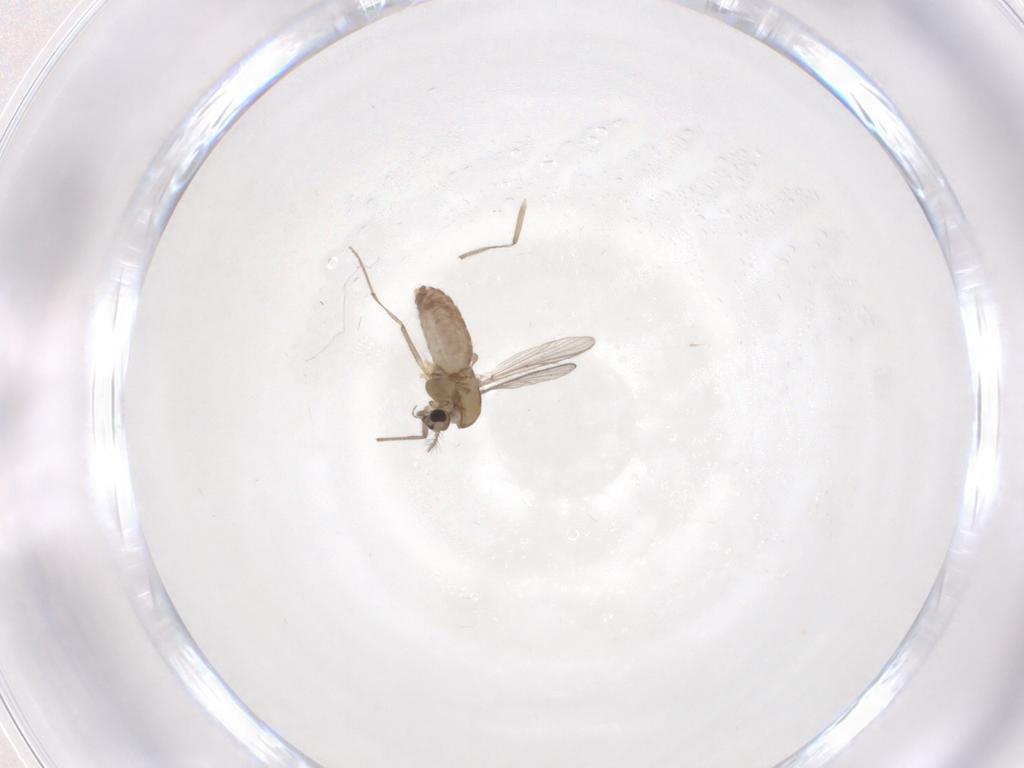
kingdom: Animalia
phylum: Arthropoda
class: Insecta
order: Diptera
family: Chironomidae
